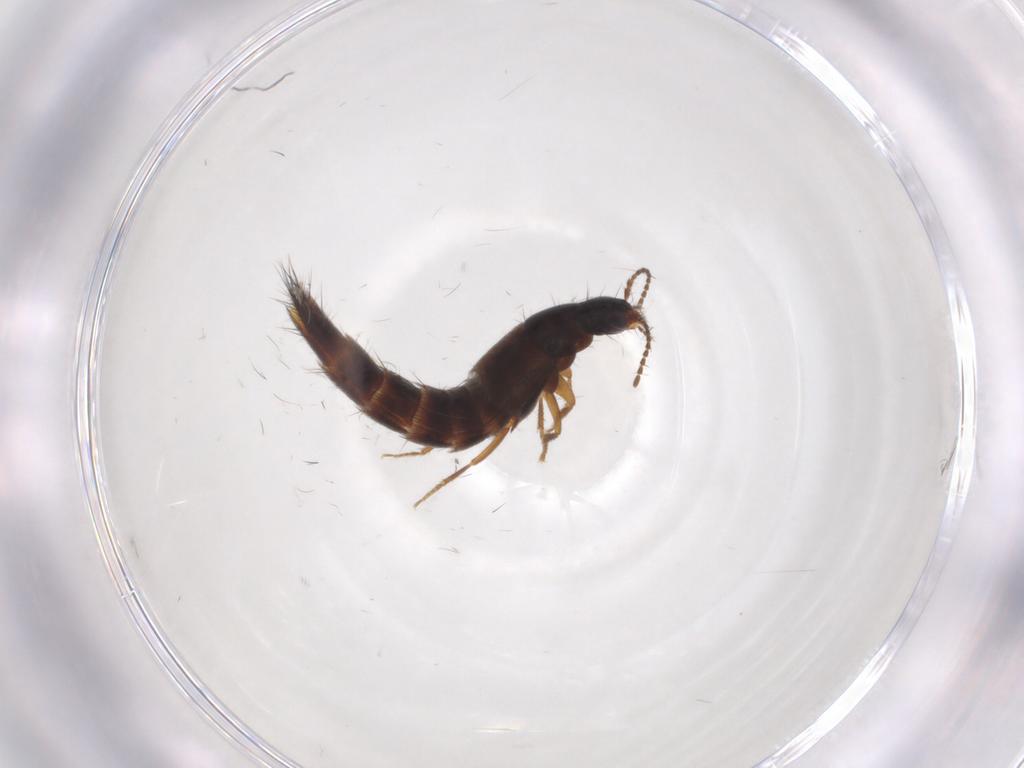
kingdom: Animalia
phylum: Arthropoda
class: Insecta
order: Coleoptera
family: Staphylinidae
